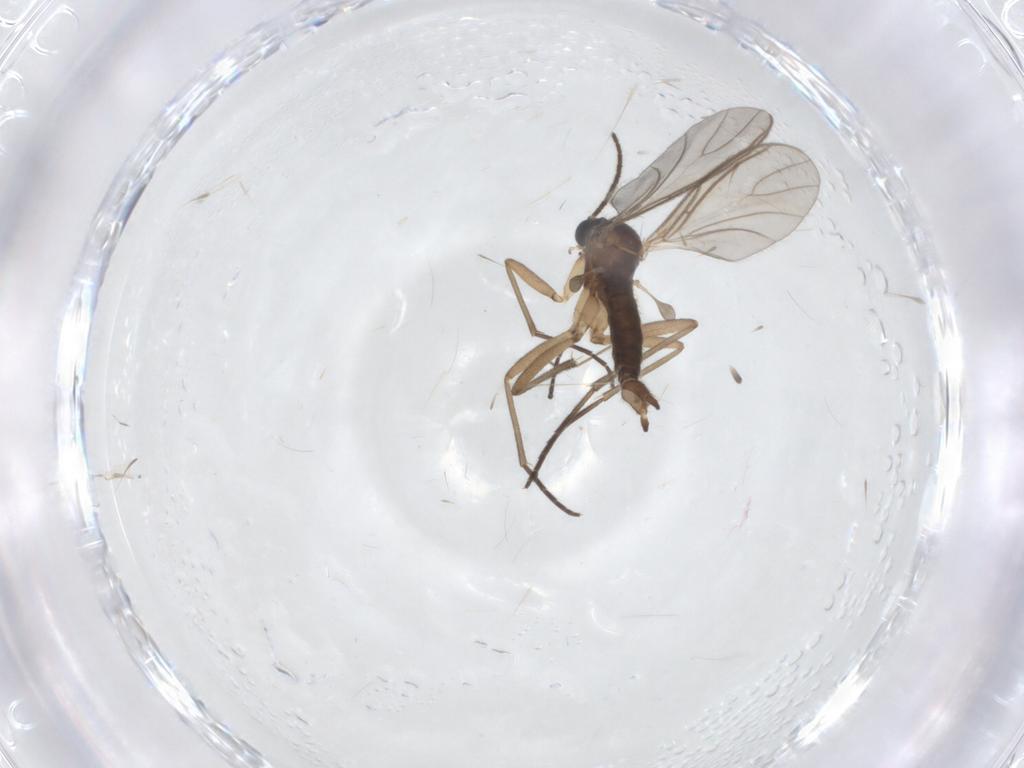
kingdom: Animalia
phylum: Arthropoda
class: Insecta
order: Diptera
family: Sciaridae
